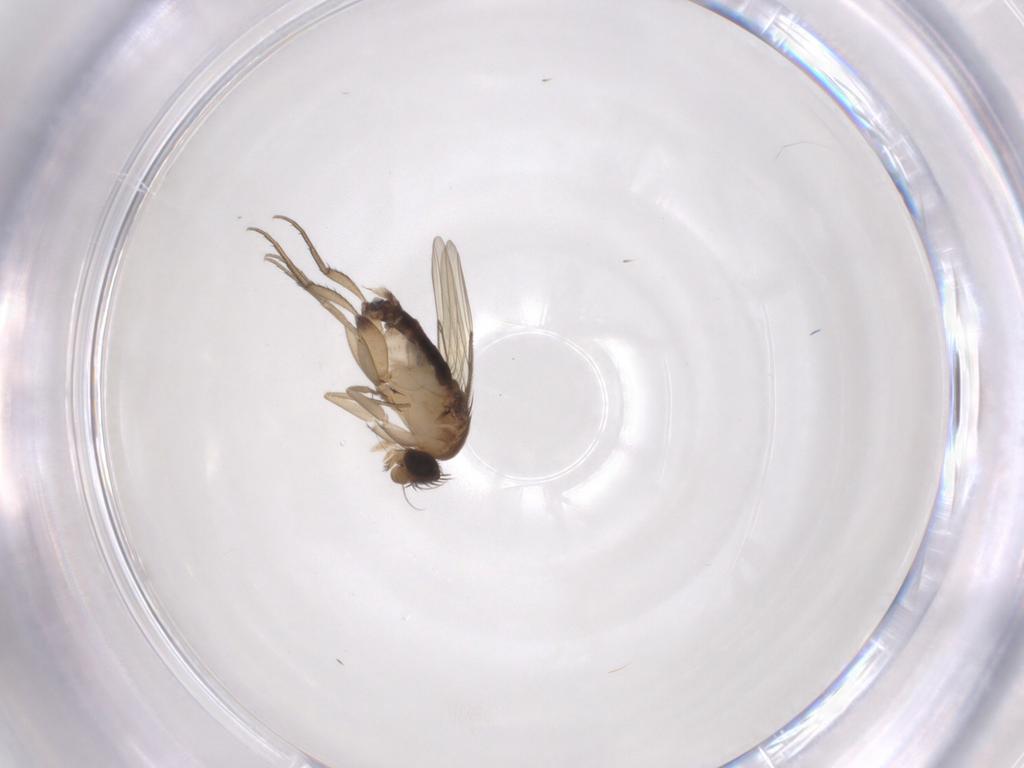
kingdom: Animalia
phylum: Arthropoda
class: Insecta
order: Diptera
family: Phoridae
